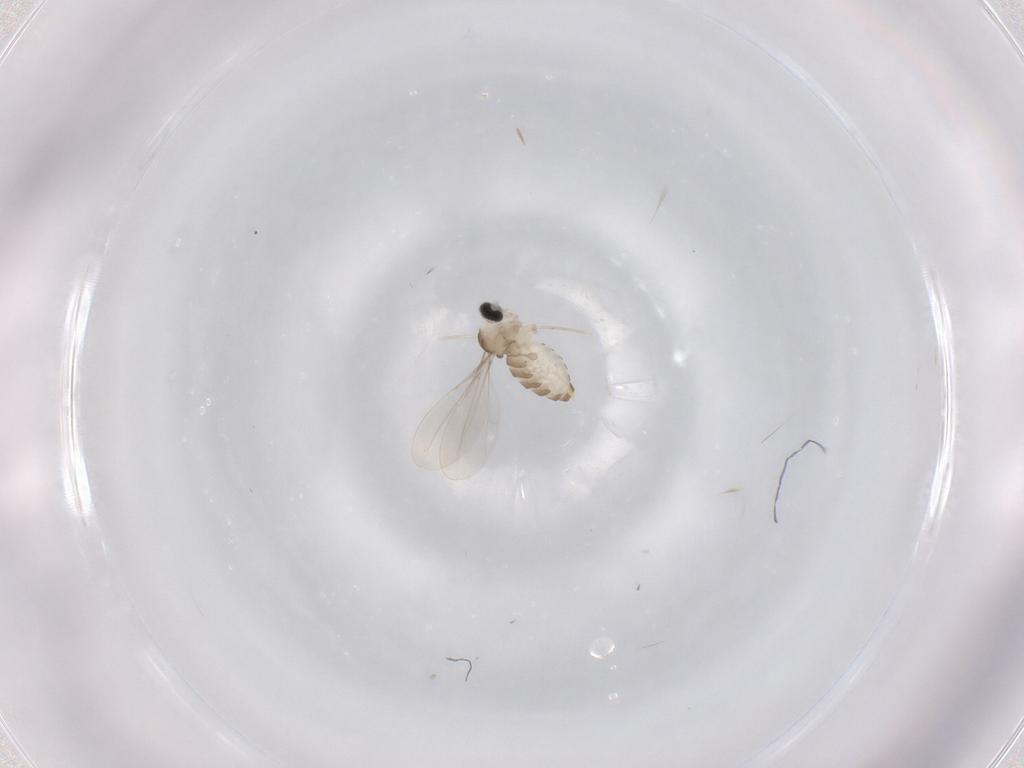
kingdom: Animalia
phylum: Arthropoda
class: Insecta
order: Diptera
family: Cecidomyiidae
